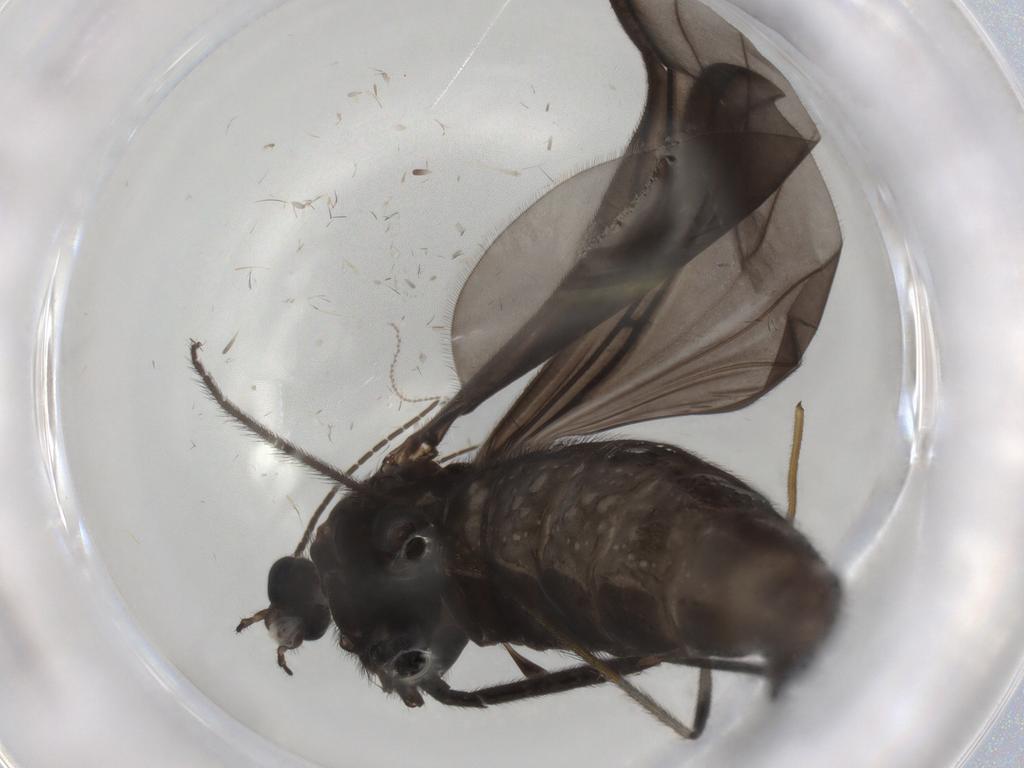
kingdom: Animalia
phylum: Arthropoda
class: Insecta
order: Diptera
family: Limoniidae
